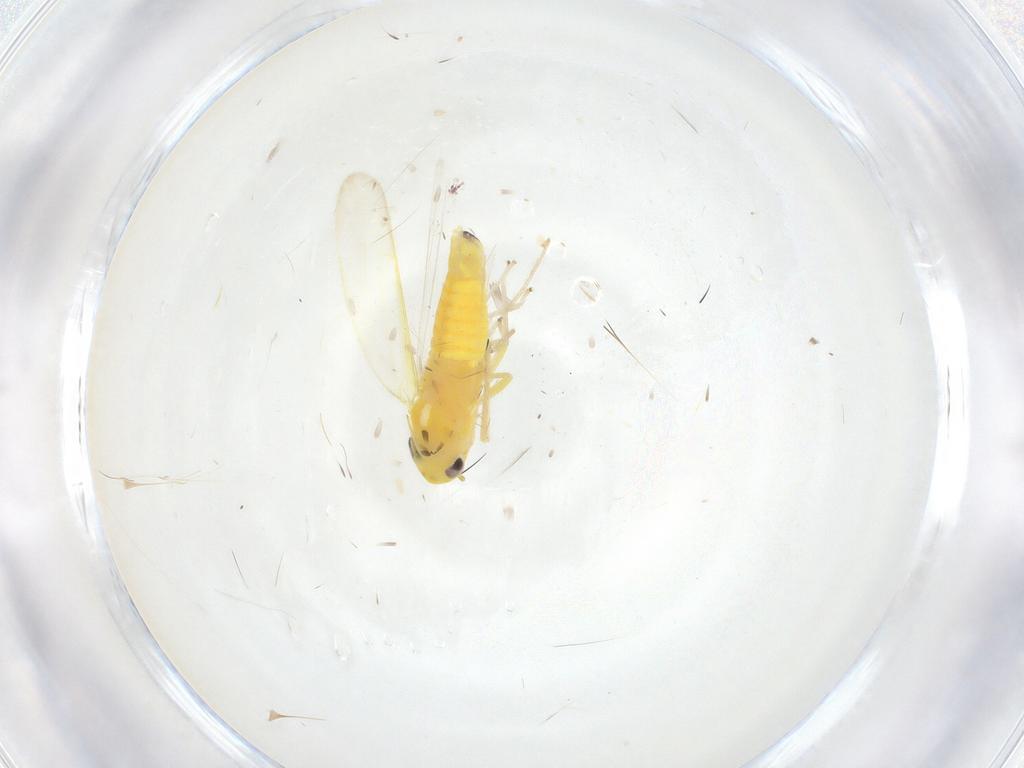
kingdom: Animalia
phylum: Arthropoda
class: Insecta
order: Hemiptera
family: Cicadellidae
